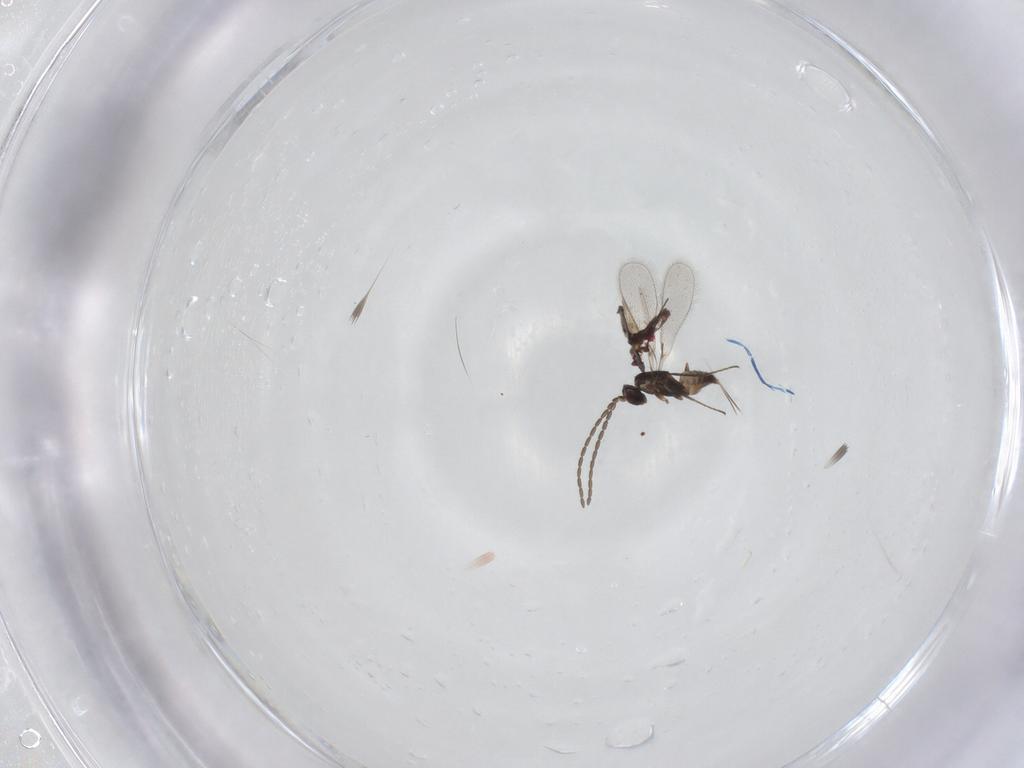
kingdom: Animalia
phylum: Arthropoda
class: Insecta
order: Hymenoptera
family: Mymaridae
